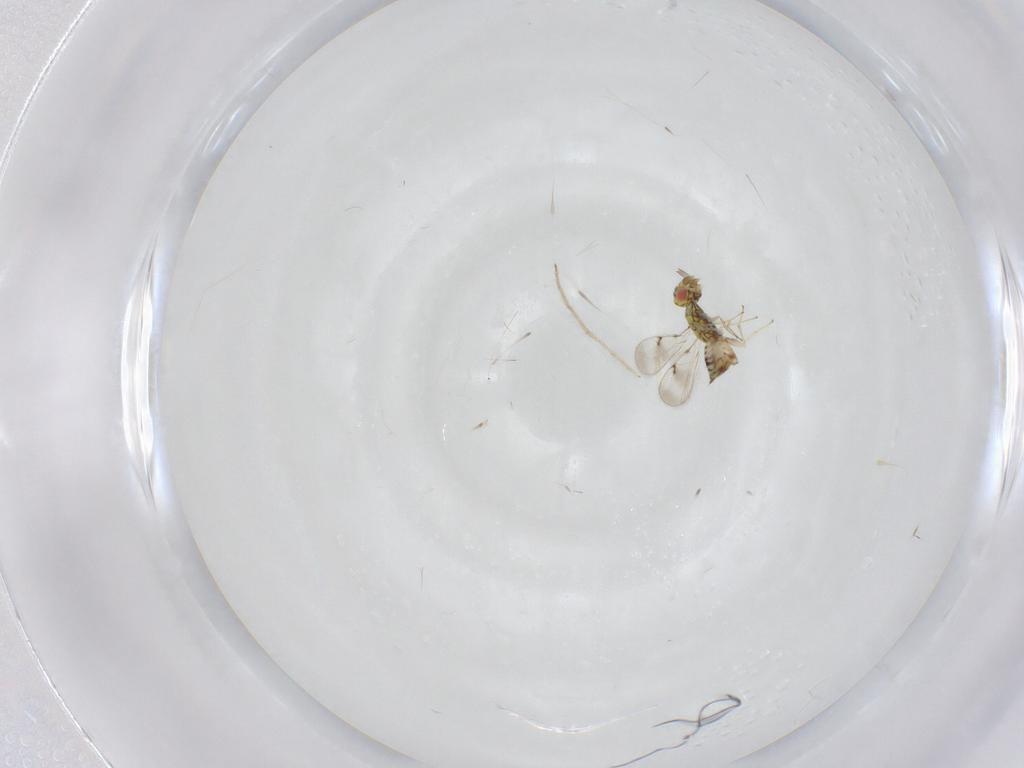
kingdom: Animalia
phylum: Arthropoda
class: Insecta
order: Hymenoptera
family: Eulophidae
